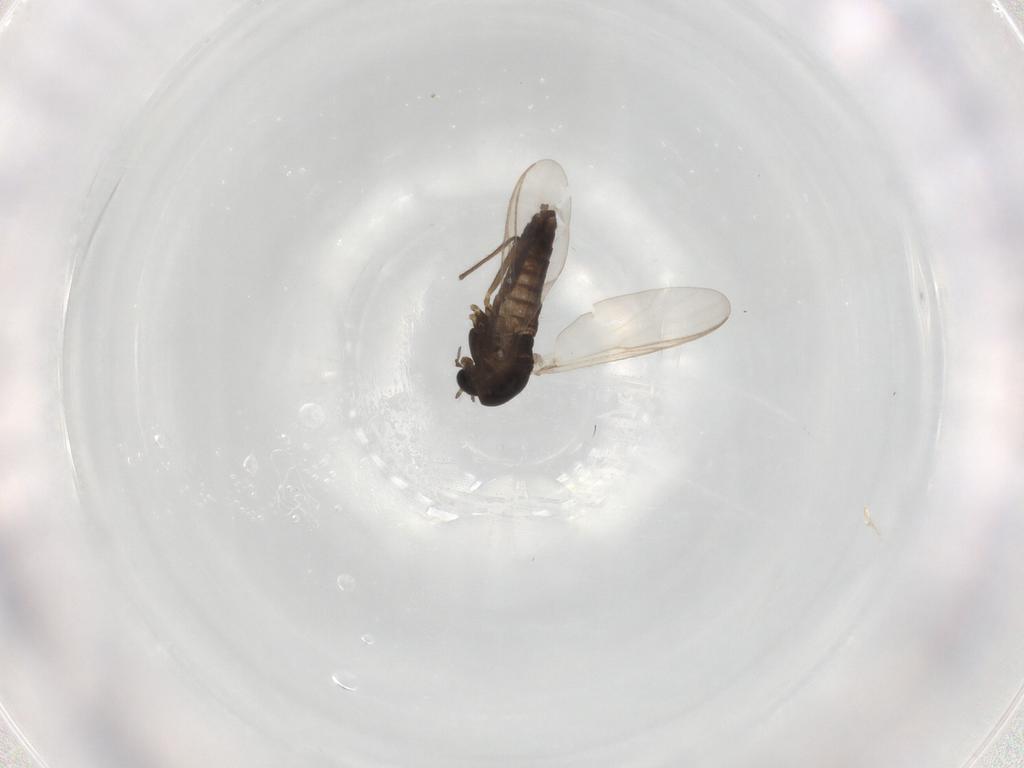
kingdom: Animalia
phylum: Arthropoda
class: Insecta
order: Diptera
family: Chironomidae
